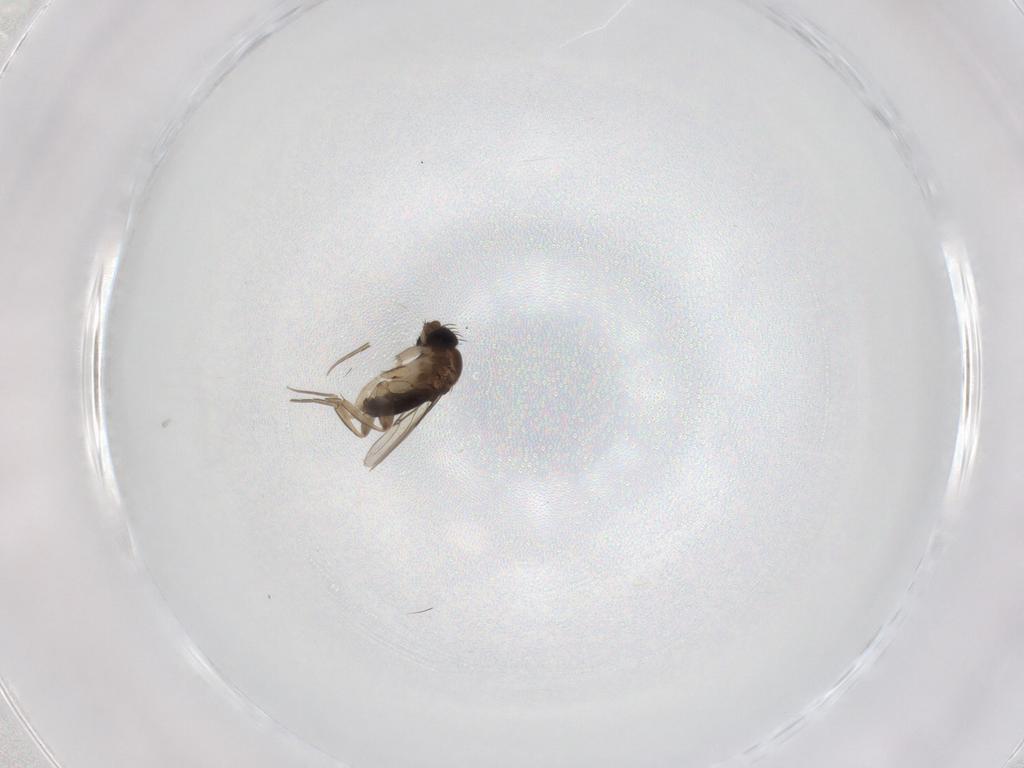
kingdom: Animalia
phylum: Arthropoda
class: Insecta
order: Diptera
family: Phoridae
